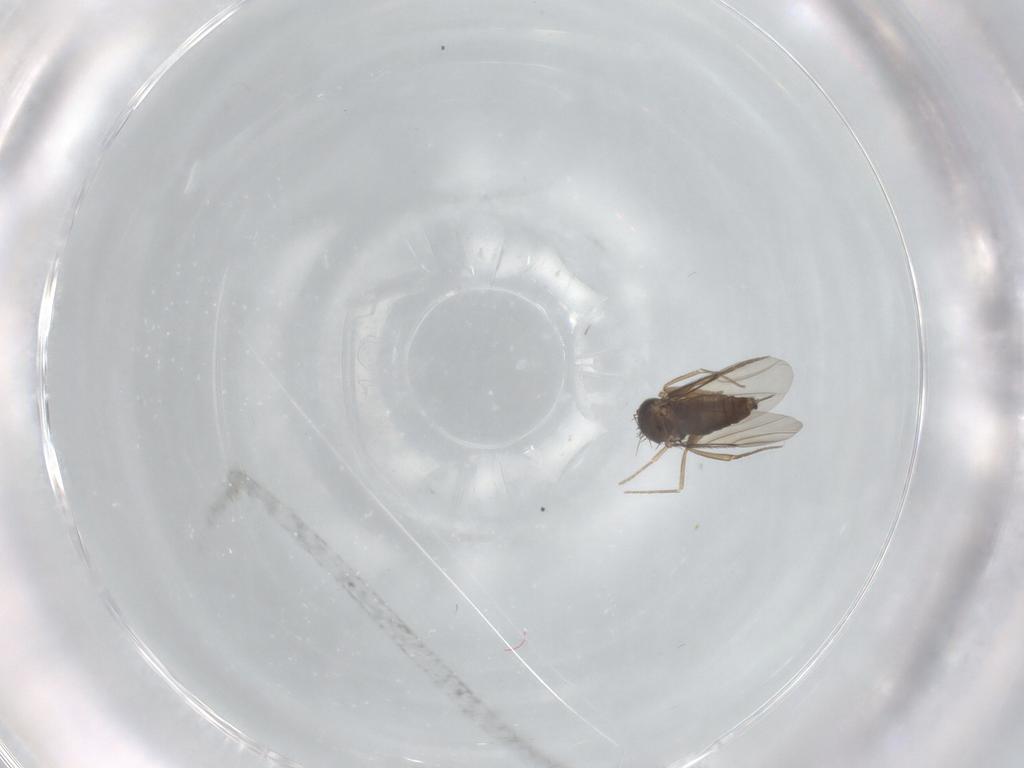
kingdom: Animalia
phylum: Arthropoda
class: Insecta
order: Diptera
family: Phoridae
